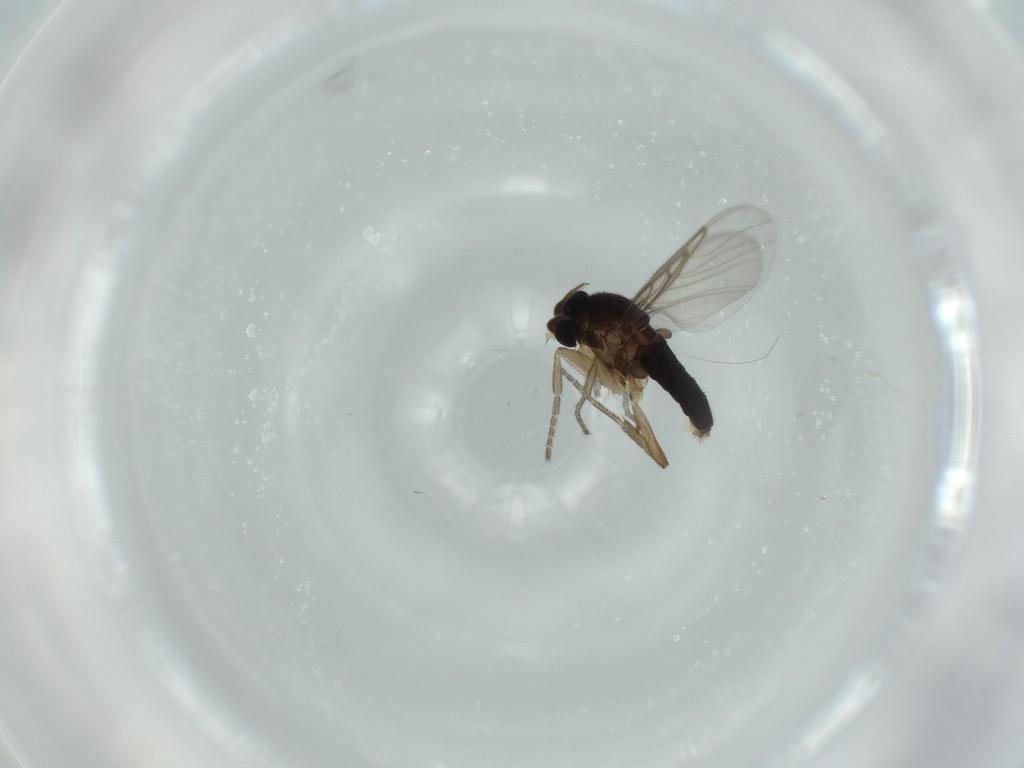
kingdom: Animalia
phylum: Arthropoda
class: Insecta
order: Diptera
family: Phoridae
